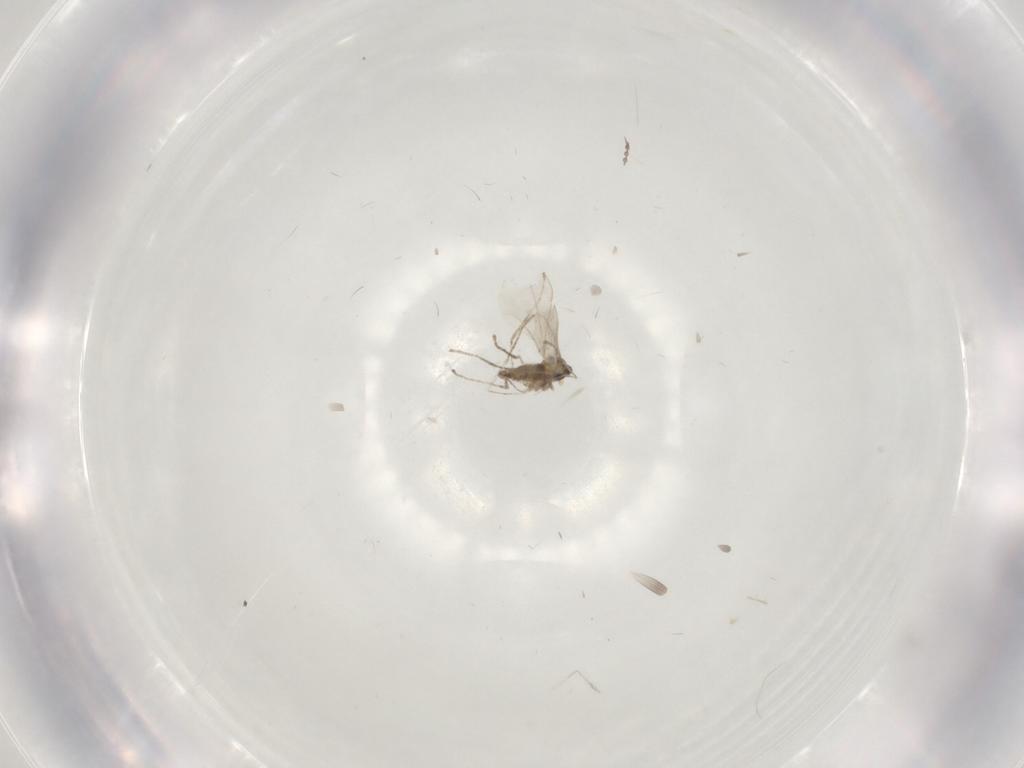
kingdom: Animalia
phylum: Arthropoda
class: Insecta
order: Diptera
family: Cecidomyiidae
